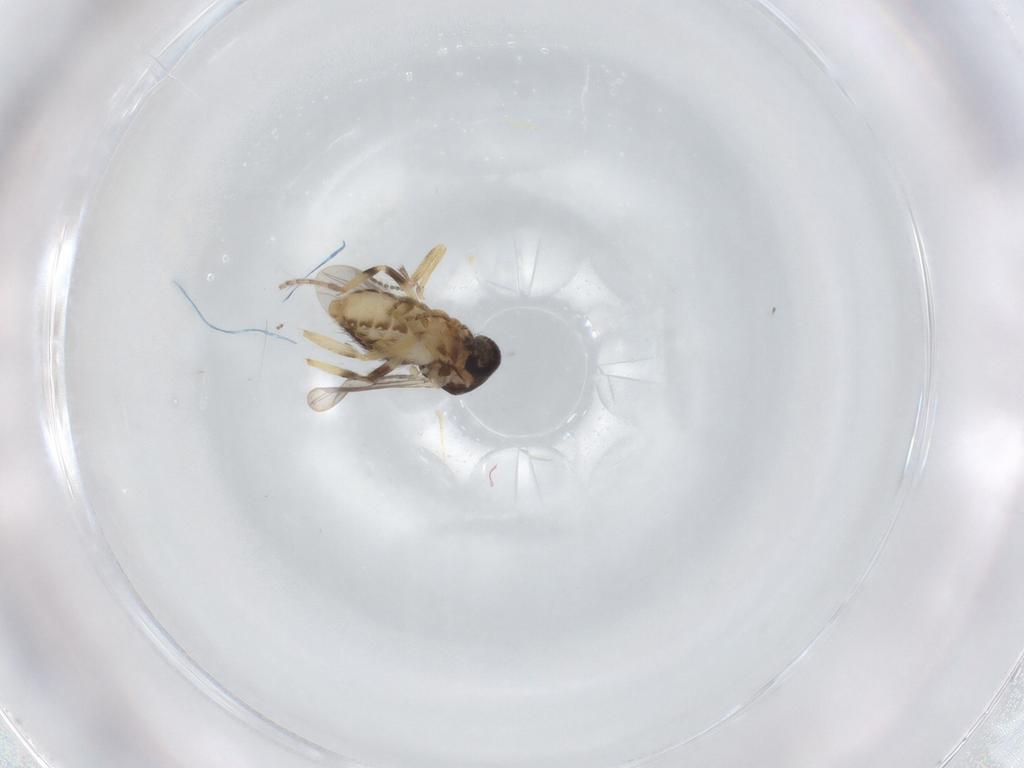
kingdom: Animalia
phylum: Arthropoda
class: Insecta
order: Diptera
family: Ceratopogonidae
